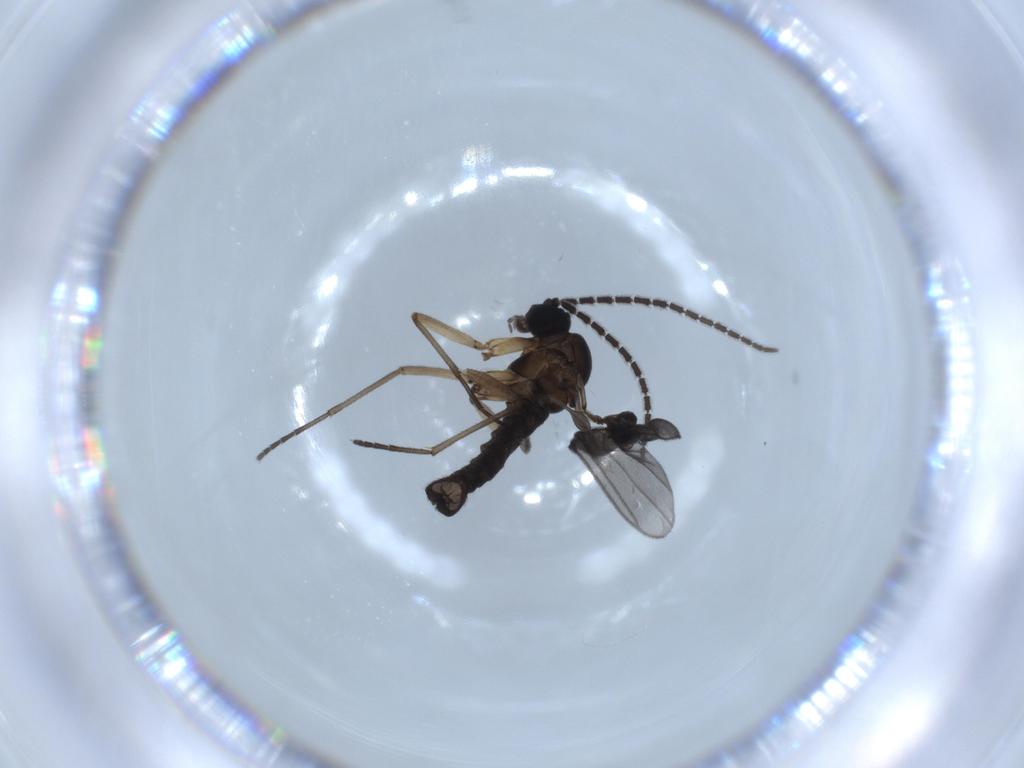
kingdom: Animalia
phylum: Arthropoda
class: Insecta
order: Diptera
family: Sciaridae
